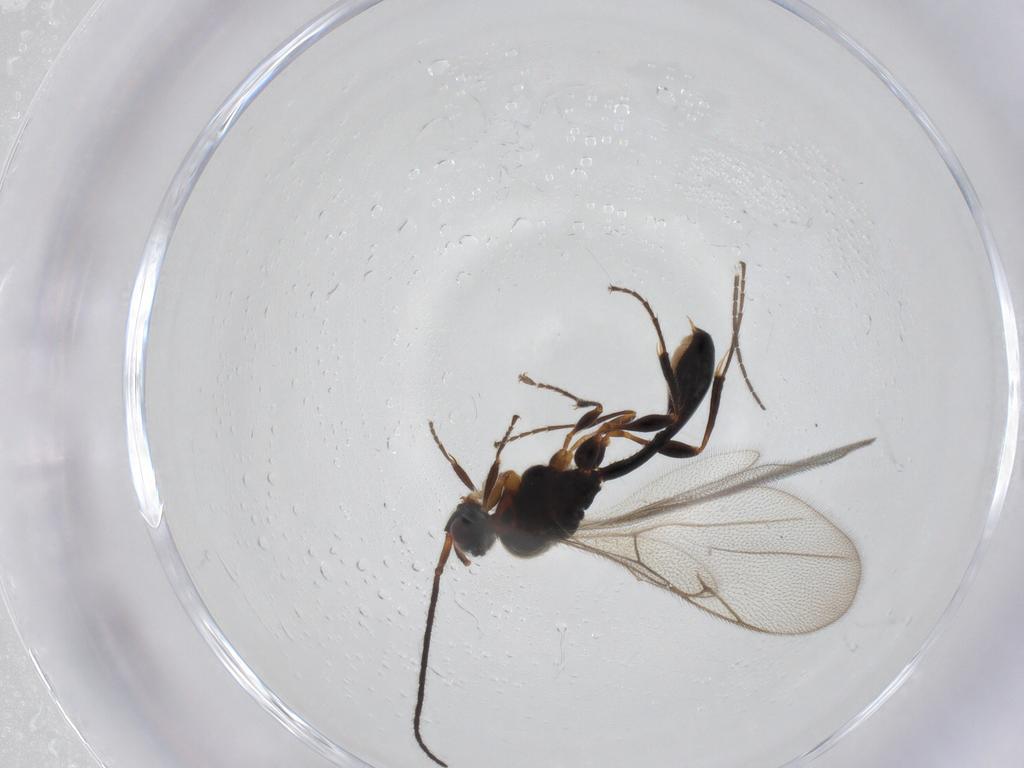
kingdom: Animalia
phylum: Arthropoda
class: Insecta
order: Hymenoptera
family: Diapriidae
